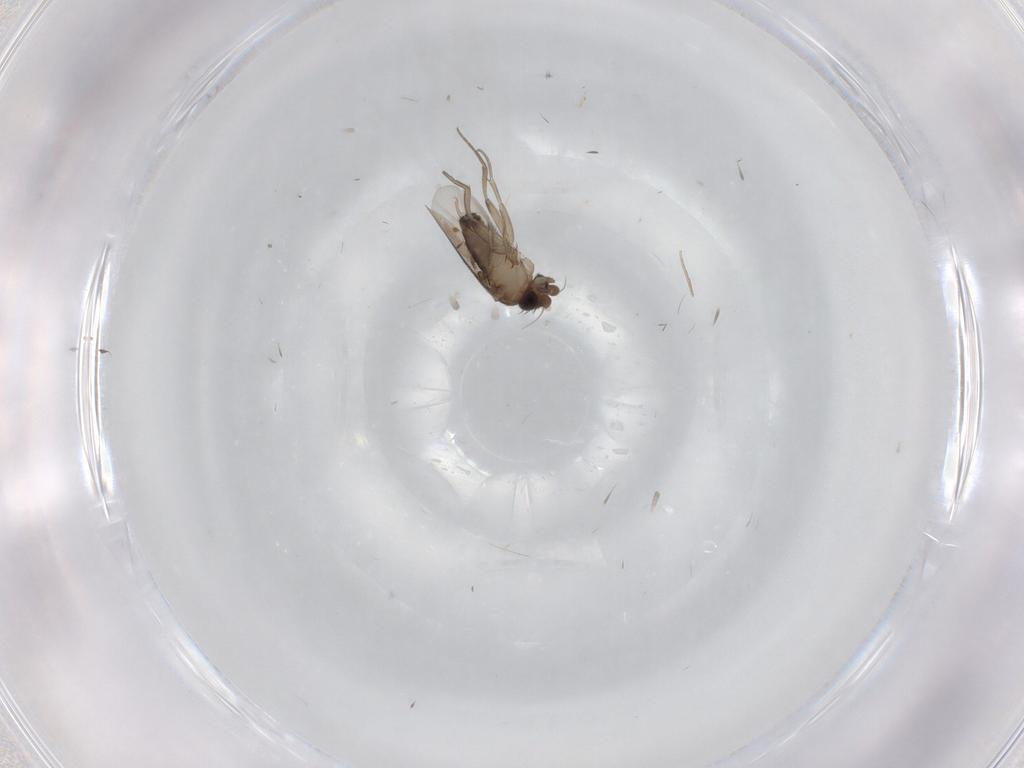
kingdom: Animalia
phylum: Arthropoda
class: Insecta
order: Diptera
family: Phoridae
